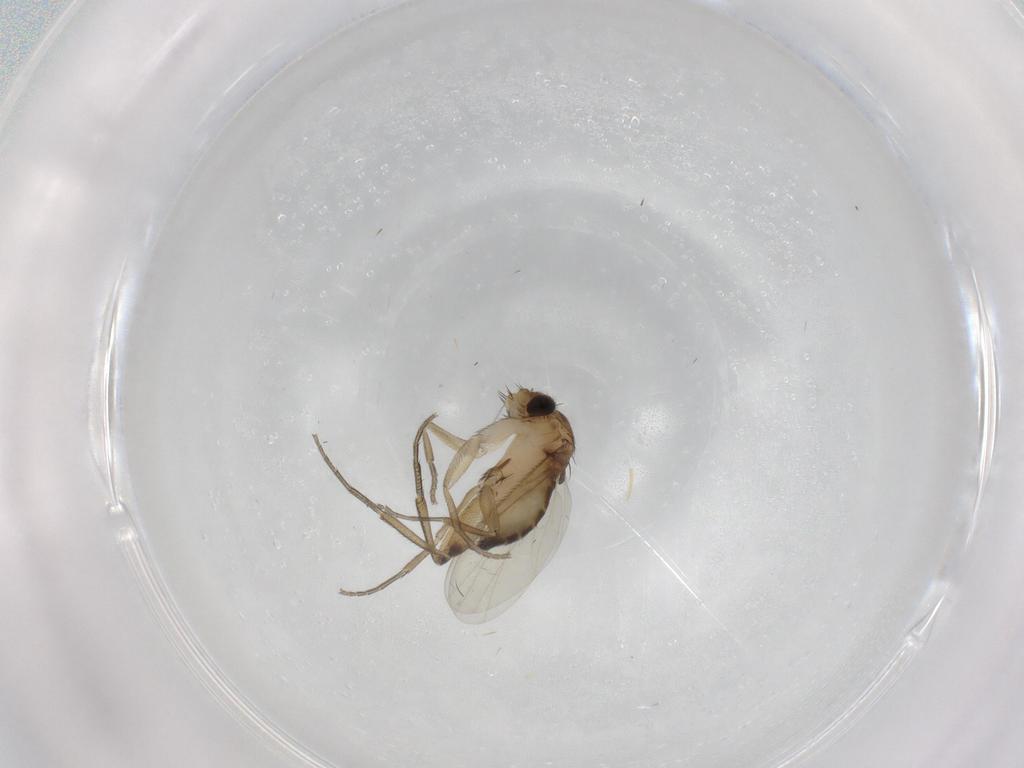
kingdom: Animalia
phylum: Arthropoda
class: Insecta
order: Diptera
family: Phoridae
